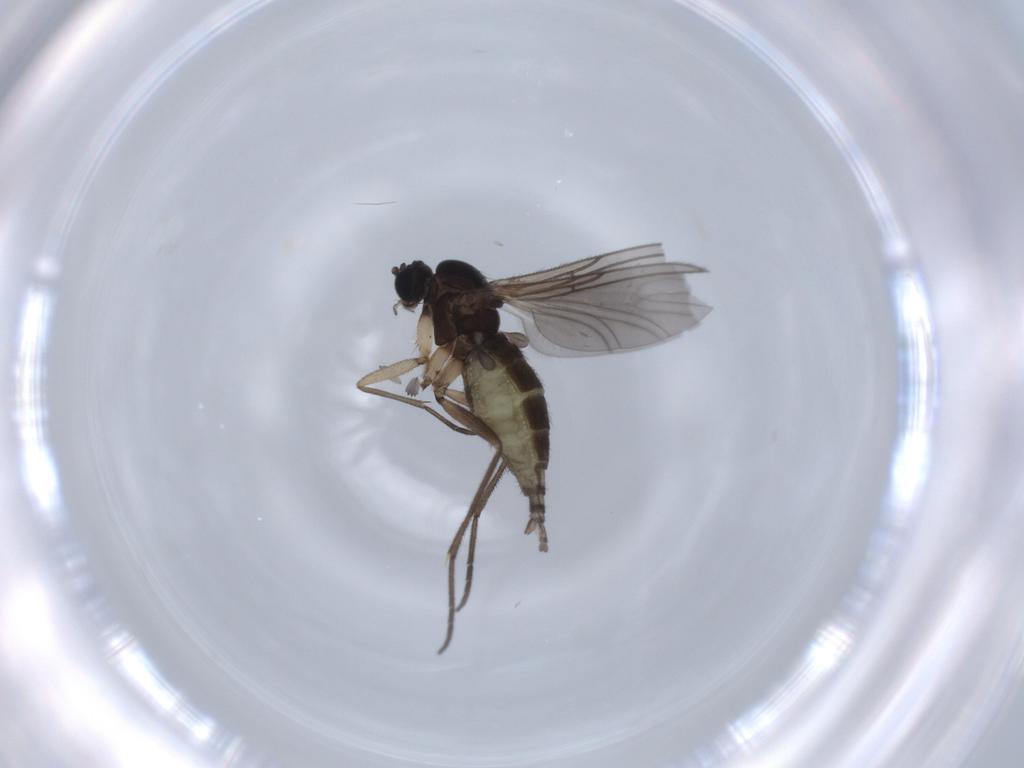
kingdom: Animalia
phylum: Arthropoda
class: Insecta
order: Diptera
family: Sciaridae
